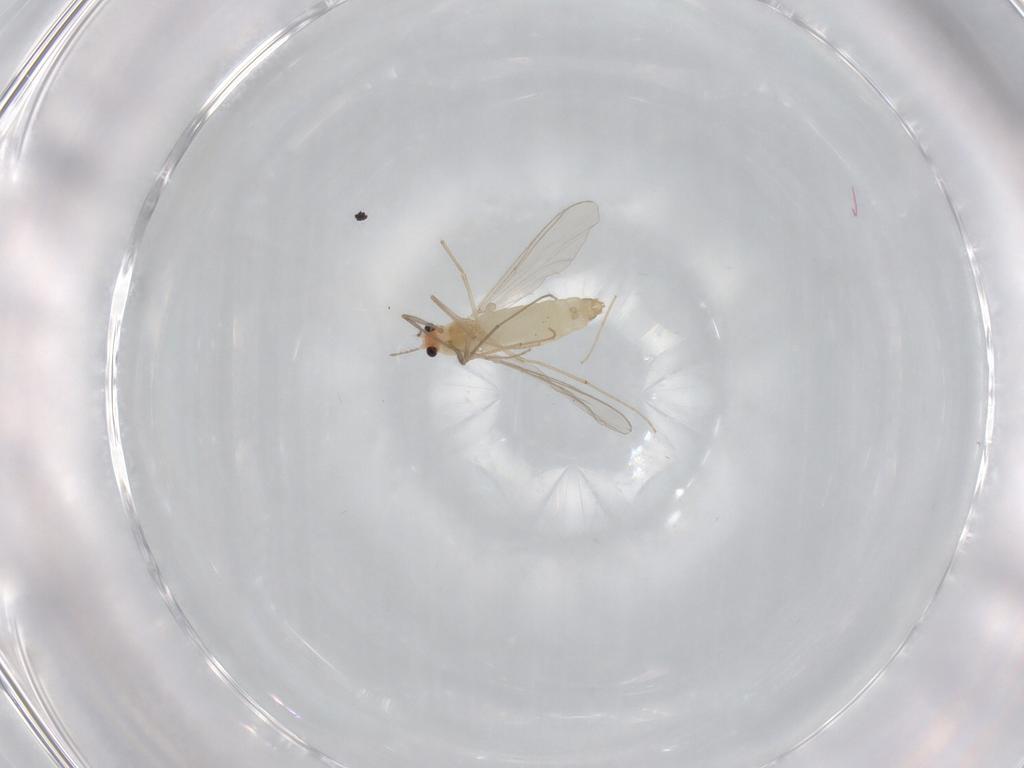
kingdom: Animalia
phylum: Arthropoda
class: Insecta
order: Diptera
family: Chironomidae
